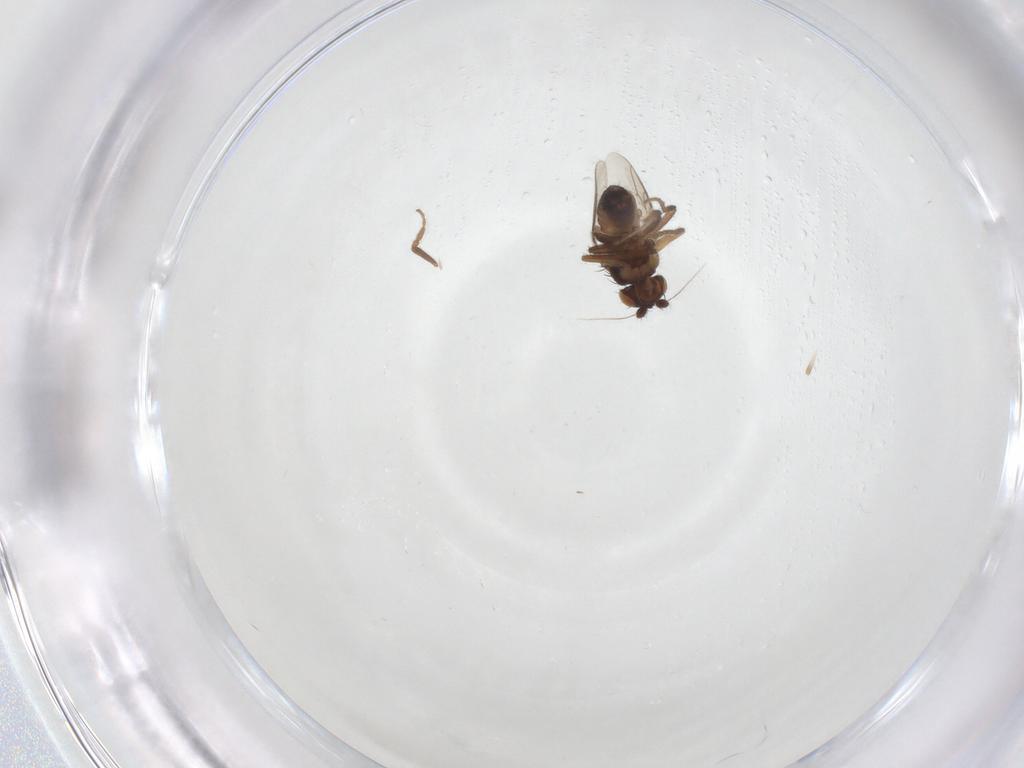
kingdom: Animalia
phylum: Arthropoda
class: Insecta
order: Diptera
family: Sphaeroceridae
